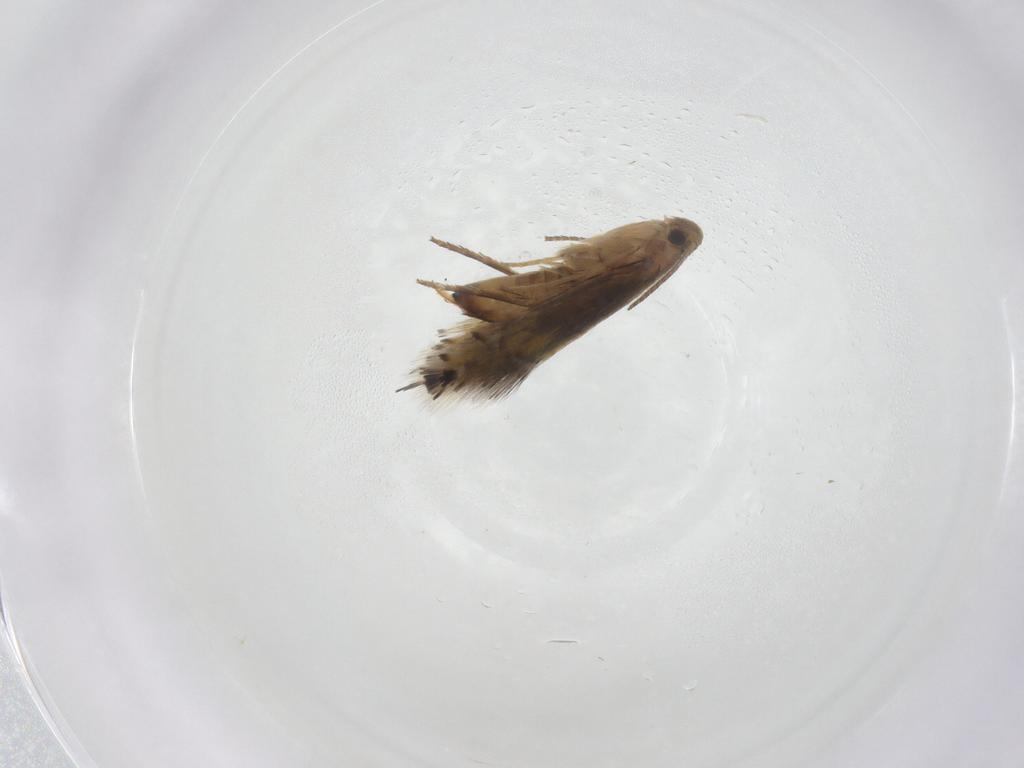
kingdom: Animalia
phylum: Arthropoda
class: Insecta
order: Lepidoptera
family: Heliozelidae
